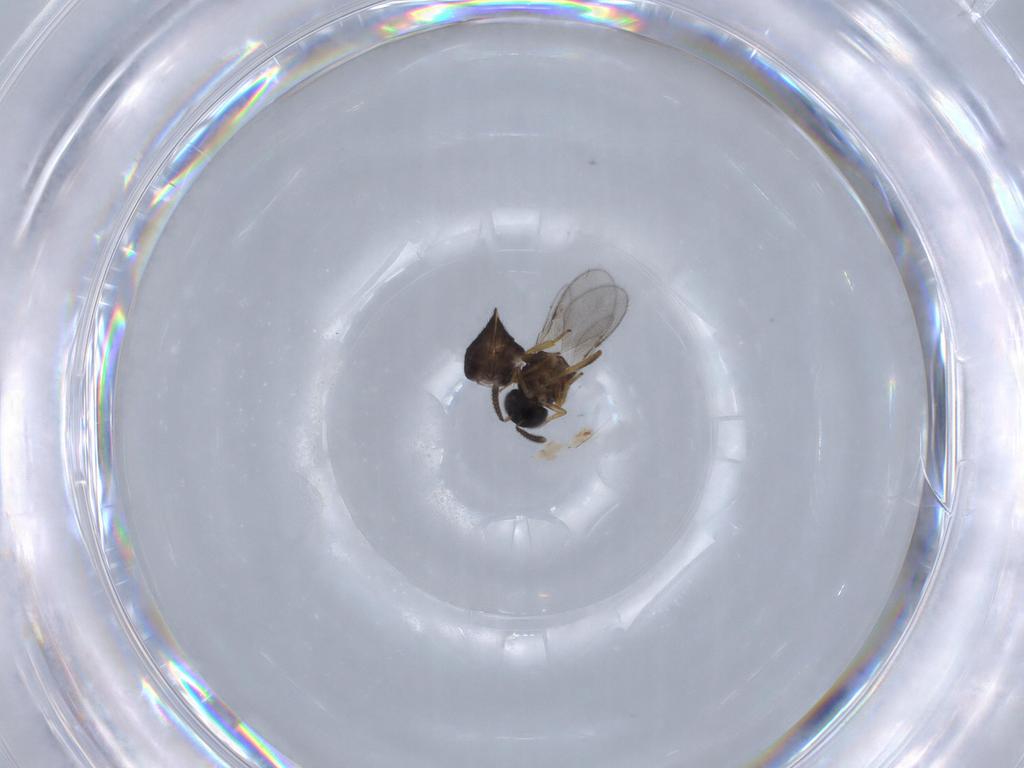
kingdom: Animalia
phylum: Arthropoda
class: Insecta
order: Hymenoptera
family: Encyrtidae
